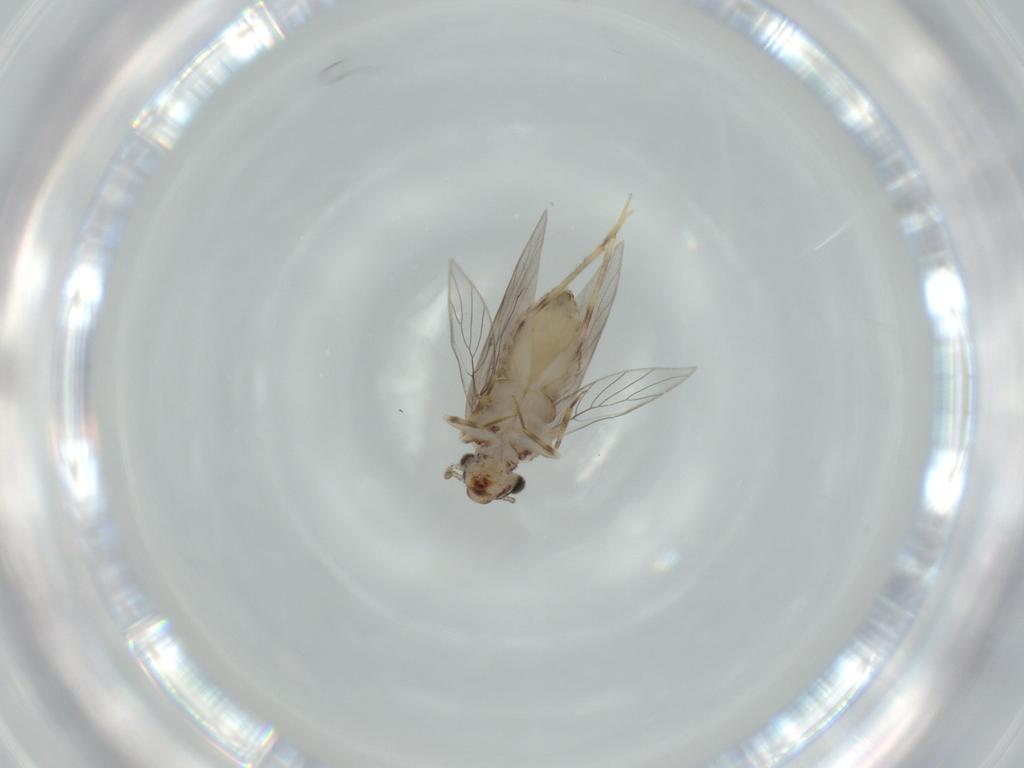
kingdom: Animalia
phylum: Arthropoda
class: Insecta
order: Psocodea
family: Lepidopsocidae
